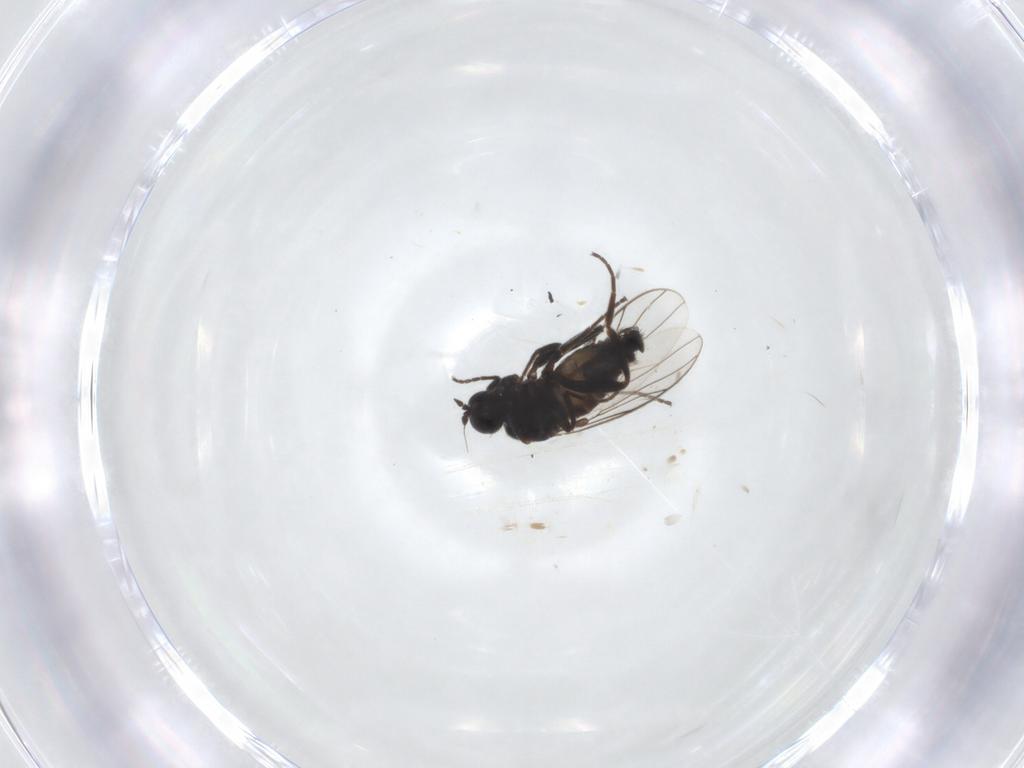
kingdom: Animalia
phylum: Arthropoda
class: Insecta
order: Diptera
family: Hybotidae
